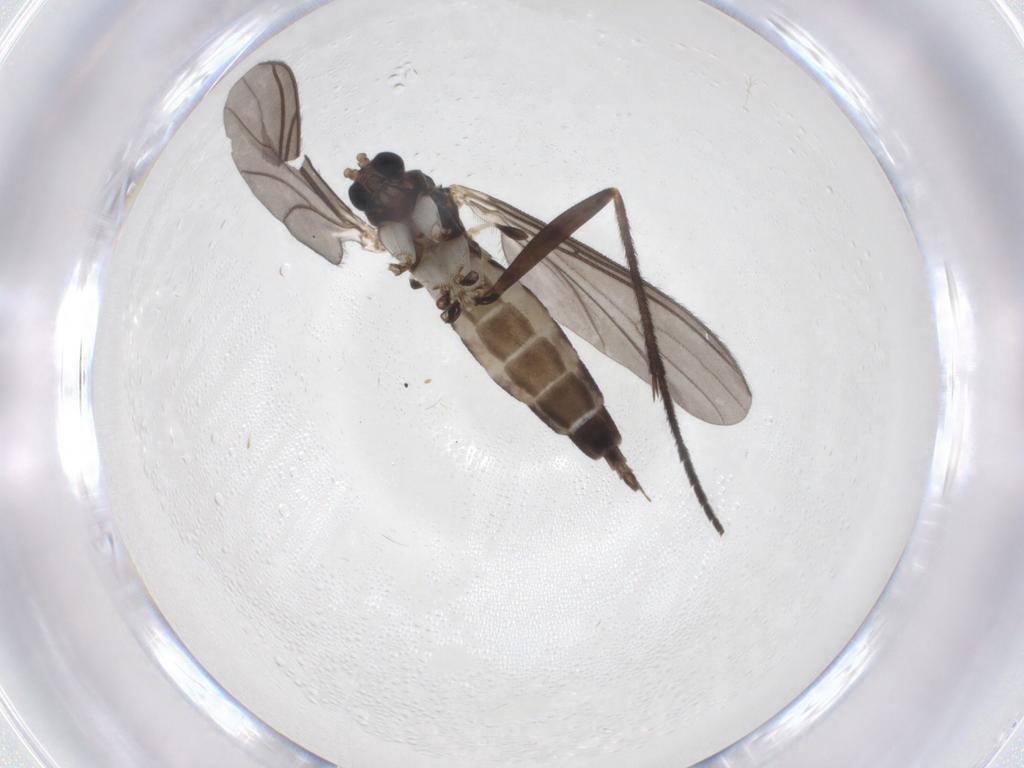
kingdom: Animalia
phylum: Arthropoda
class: Insecta
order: Diptera
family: Sciaridae
